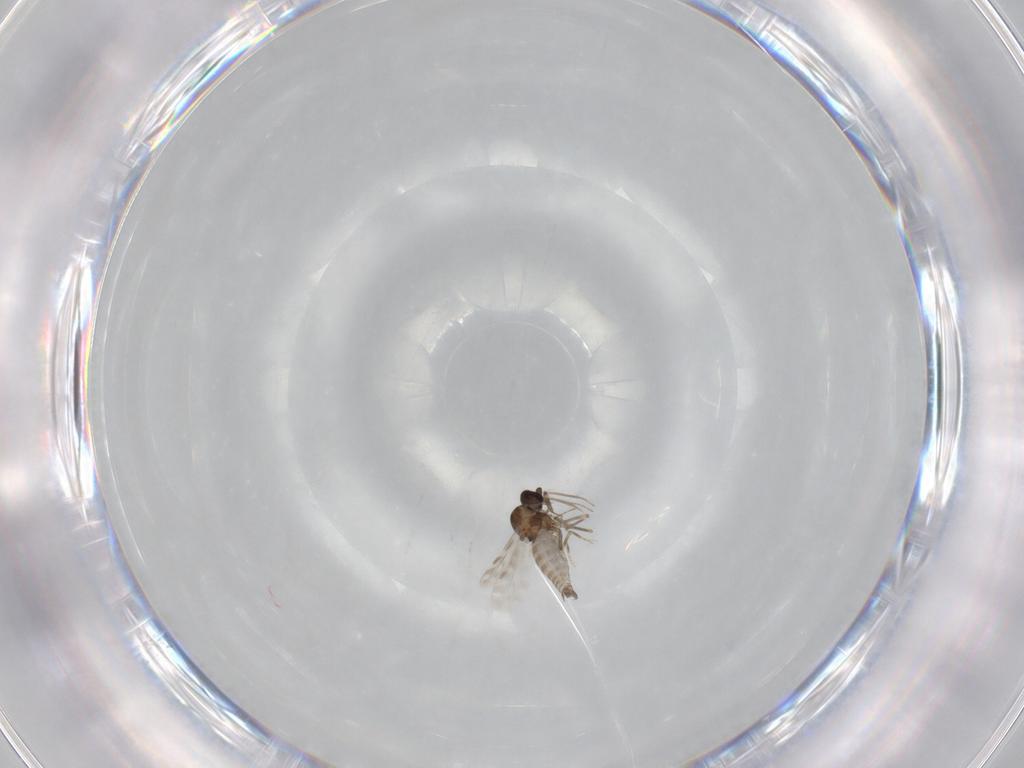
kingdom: Animalia
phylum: Arthropoda
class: Insecta
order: Diptera
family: Ceratopogonidae
